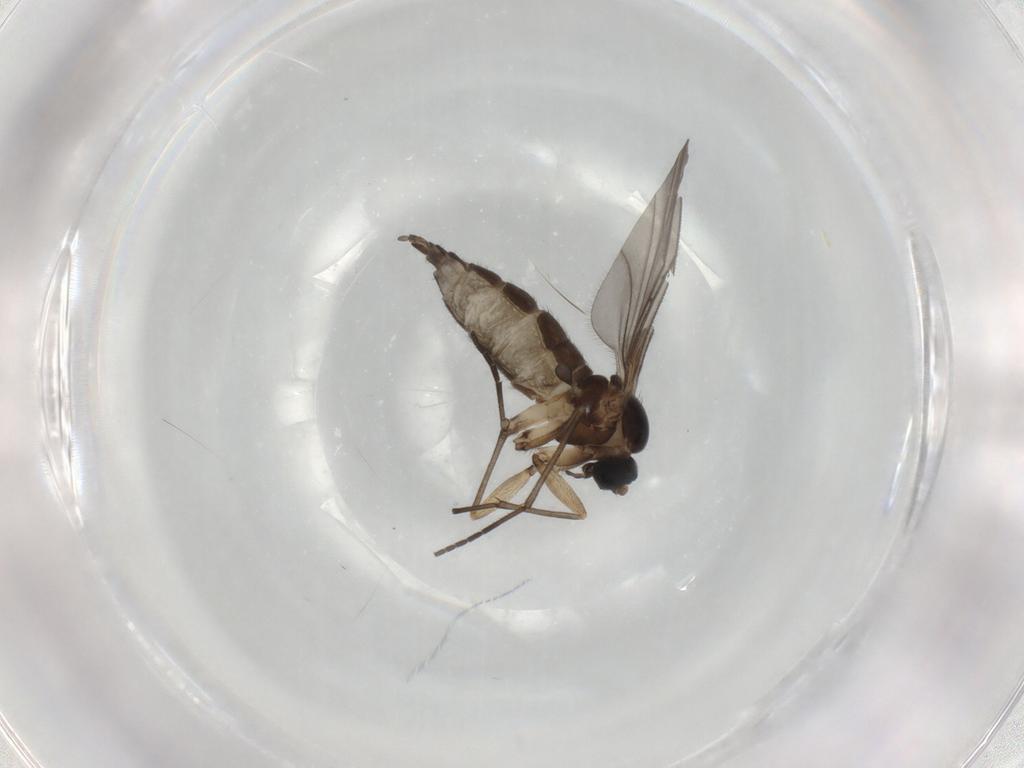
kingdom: Animalia
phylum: Arthropoda
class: Insecta
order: Diptera
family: Sciaridae
